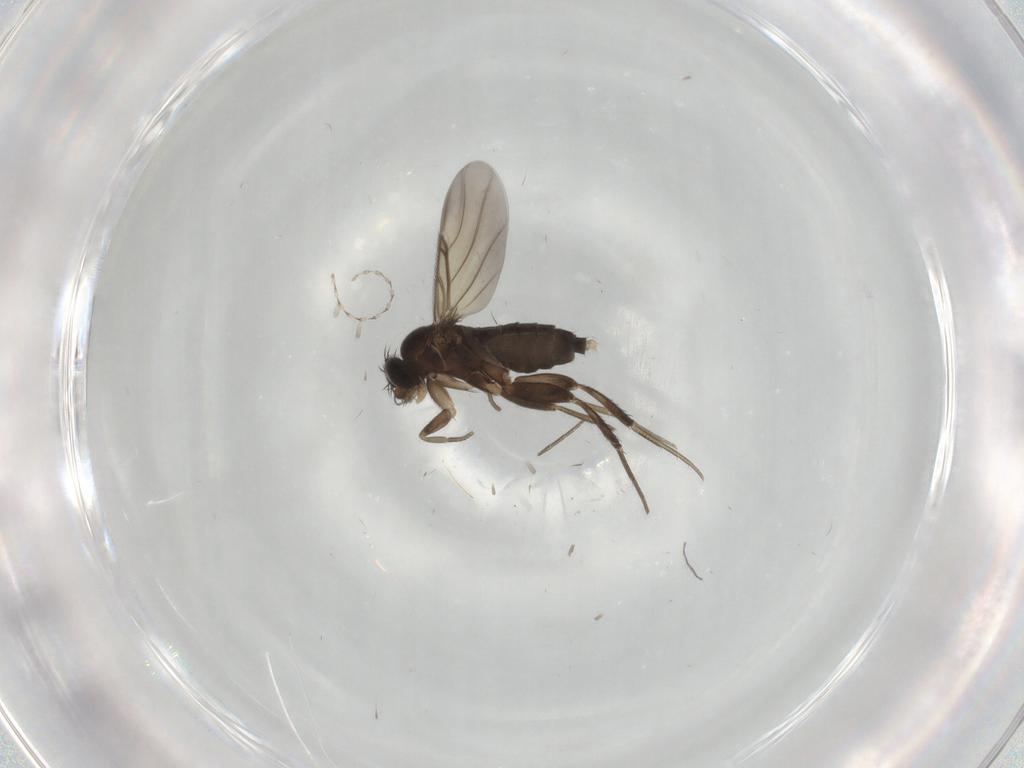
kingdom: Animalia
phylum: Arthropoda
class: Insecta
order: Diptera
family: Phoridae
